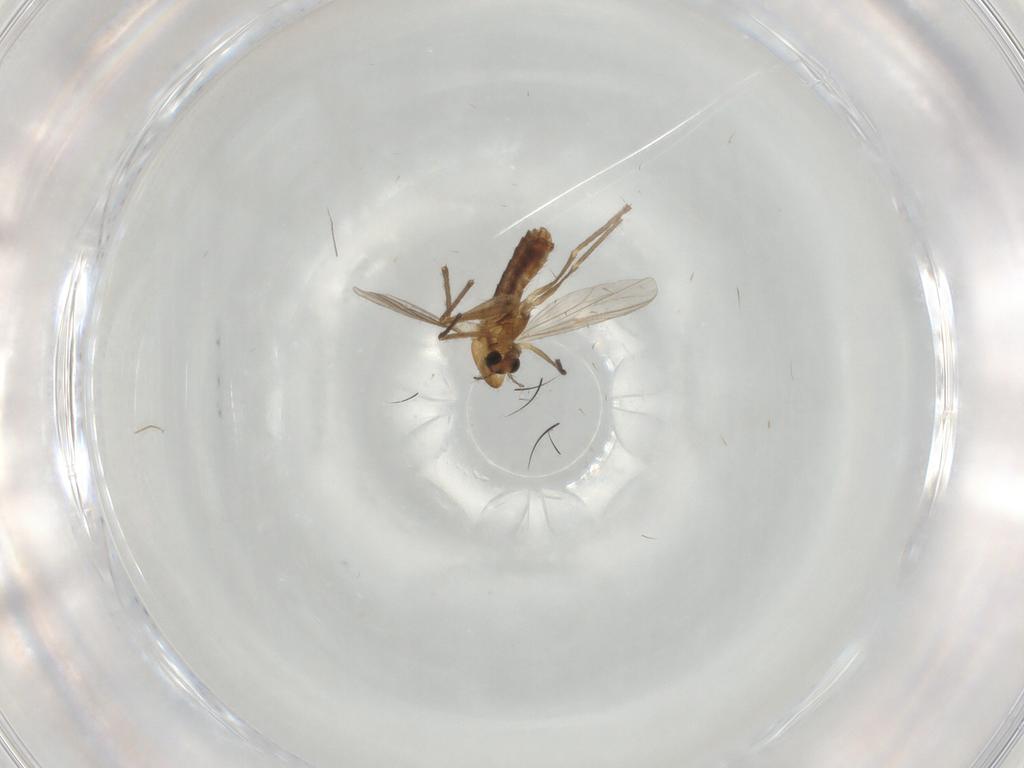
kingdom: Animalia
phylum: Arthropoda
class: Insecta
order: Diptera
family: Chironomidae
